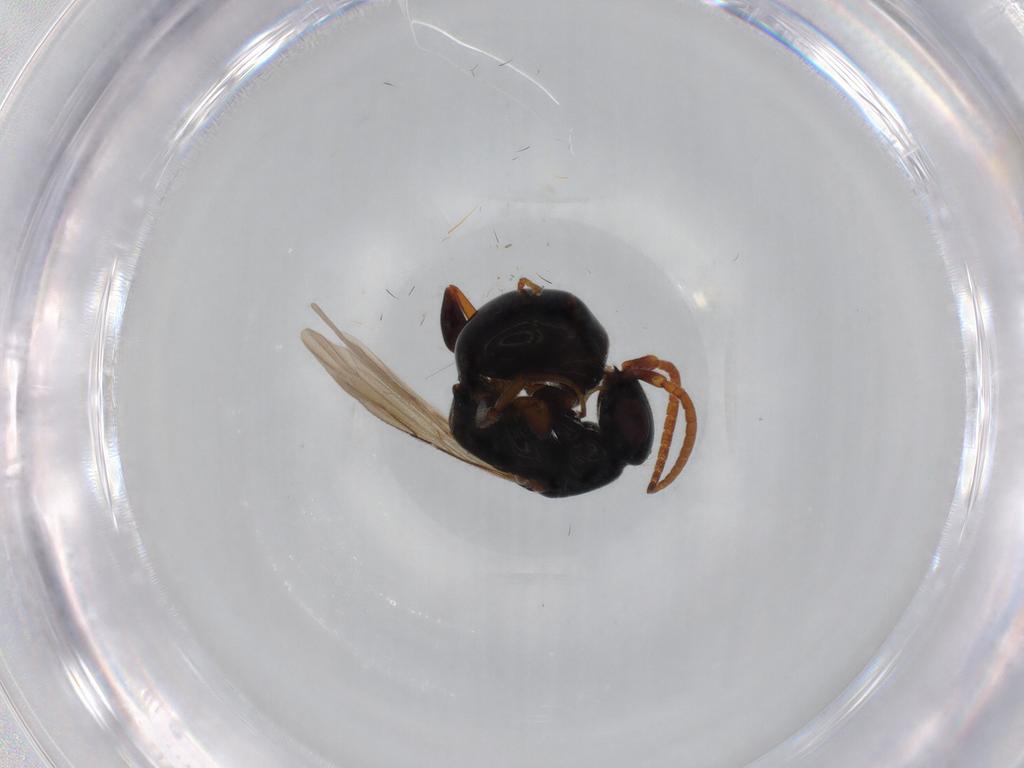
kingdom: Animalia
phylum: Arthropoda
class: Insecta
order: Hymenoptera
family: Bethylidae
